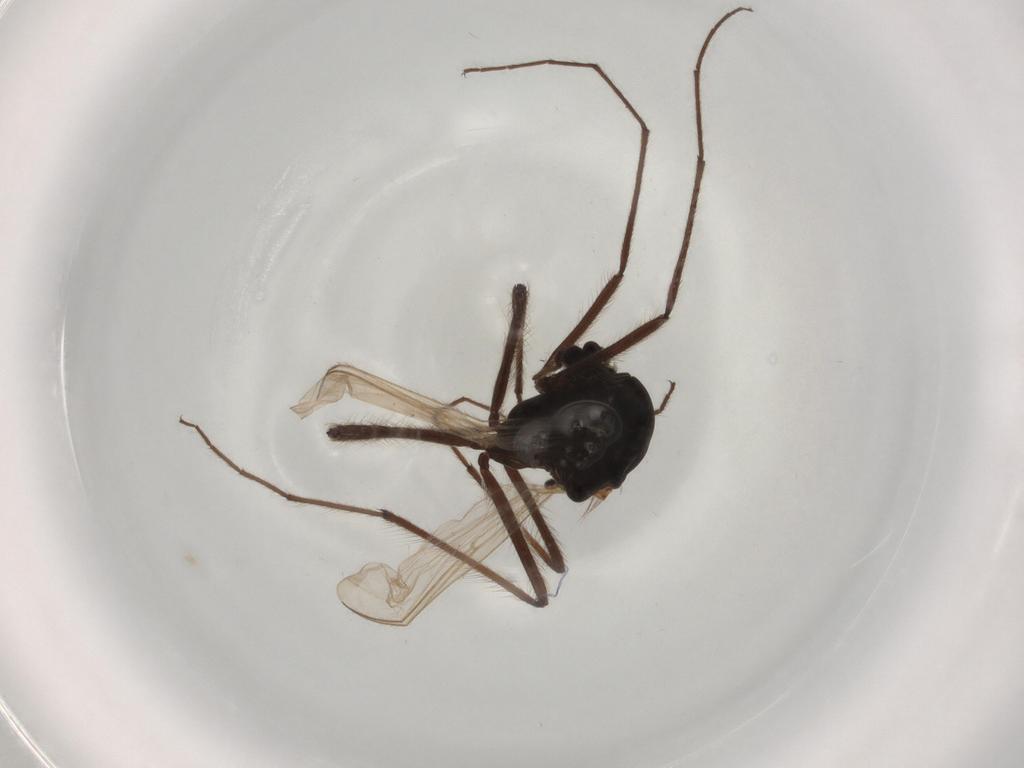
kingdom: Animalia
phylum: Arthropoda
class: Insecta
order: Diptera
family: Hybotidae
